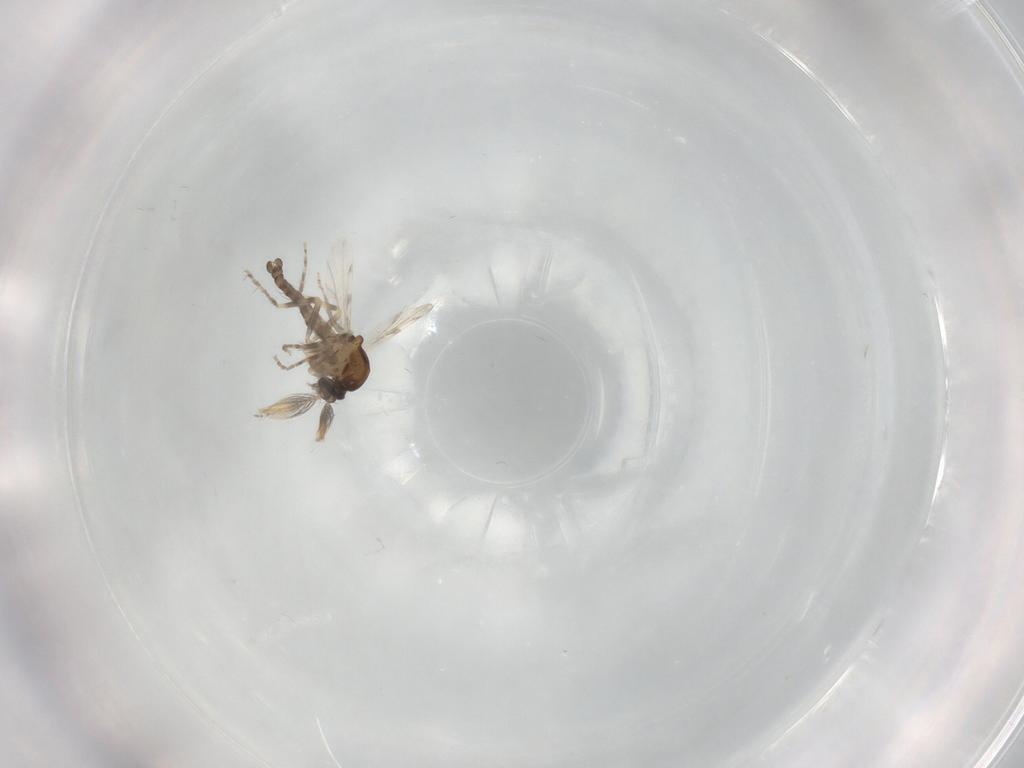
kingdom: Animalia
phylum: Arthropoda
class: Insecta
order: Diptera
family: Ceratopogonidae
